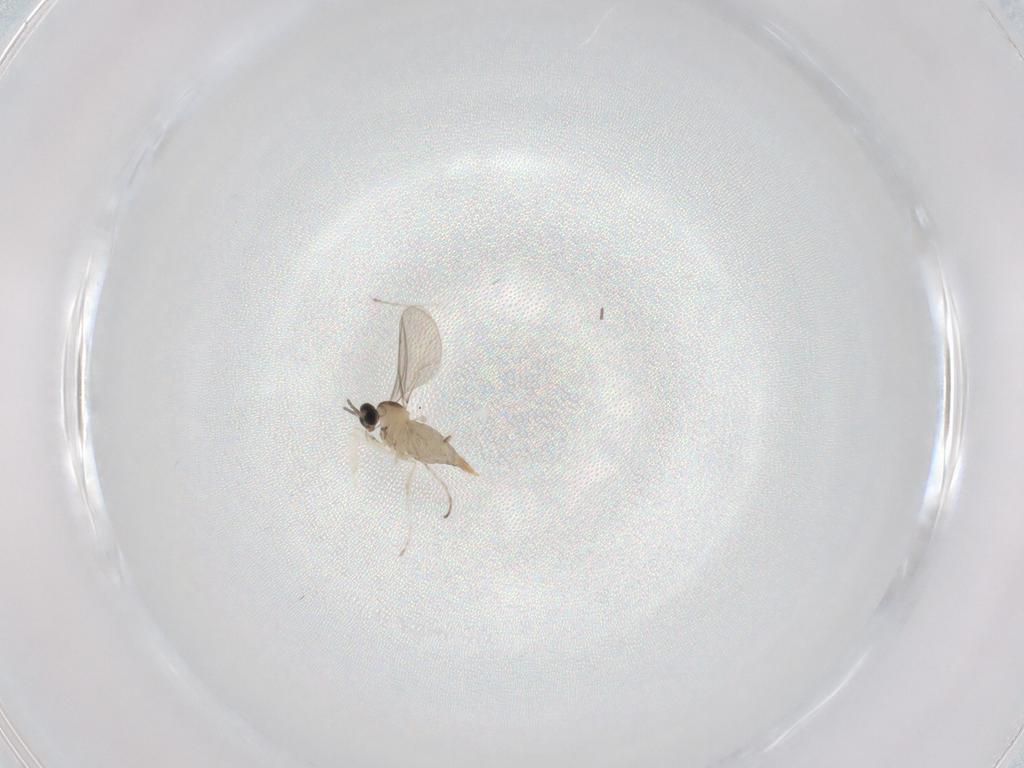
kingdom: Animalia
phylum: Arthropoda
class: Insecta
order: Diptera
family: Cecidomyiidae
